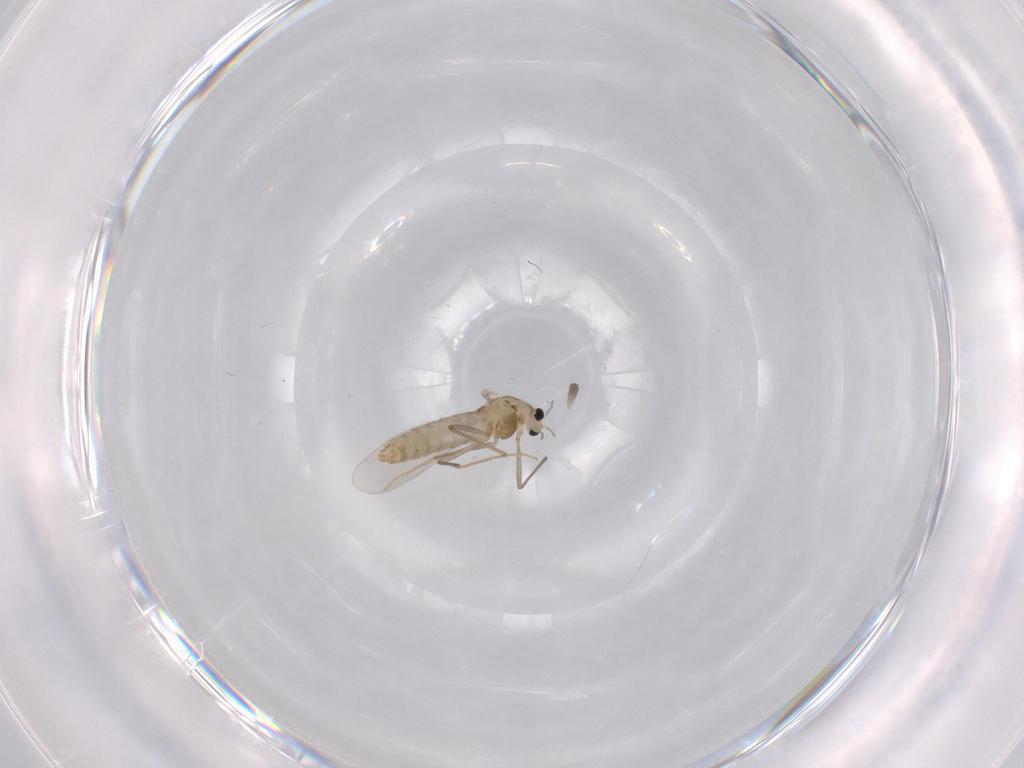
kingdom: Animalia
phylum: Arthropoda
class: Insecta
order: Diptera
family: Chironomidae
